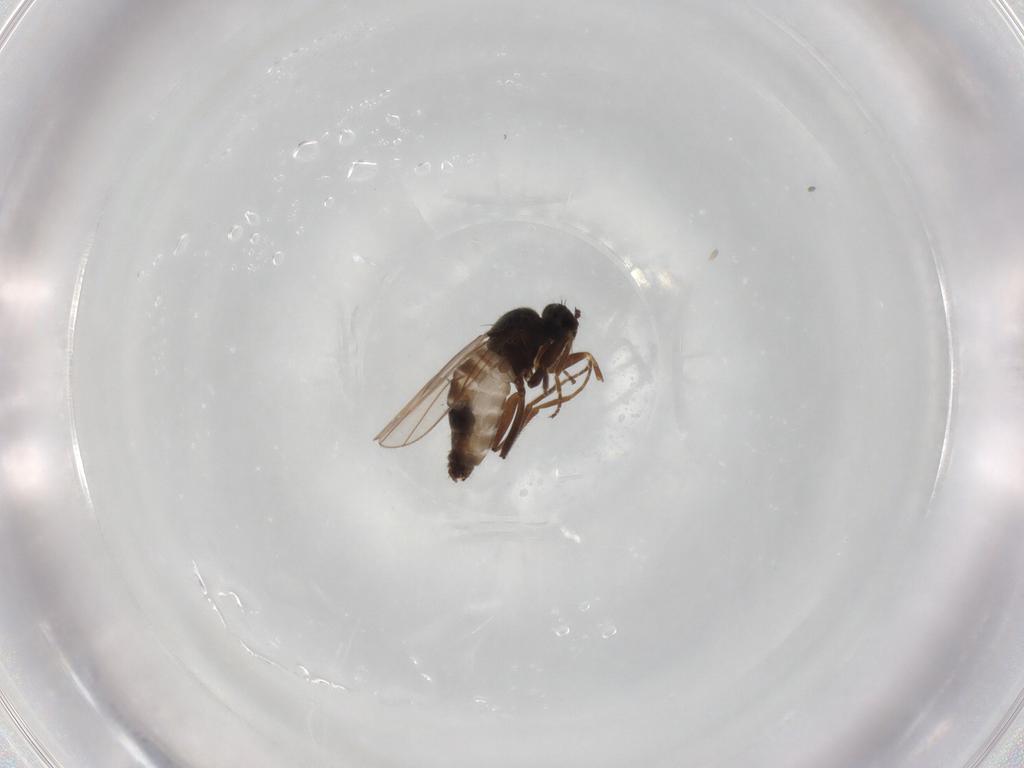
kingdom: Animalia
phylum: Arthropoda
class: Insecta
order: Diptera
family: Hybotidae
